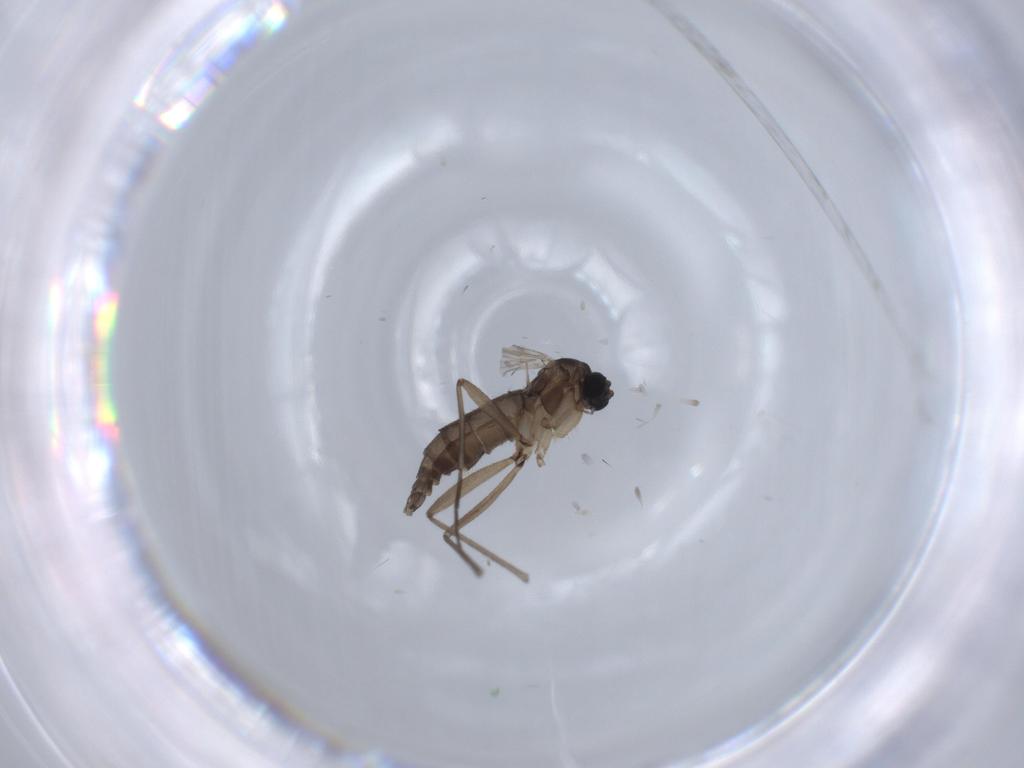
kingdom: Animalia
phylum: Arthropoda
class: Insecta
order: Diptera
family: Sciaridae
